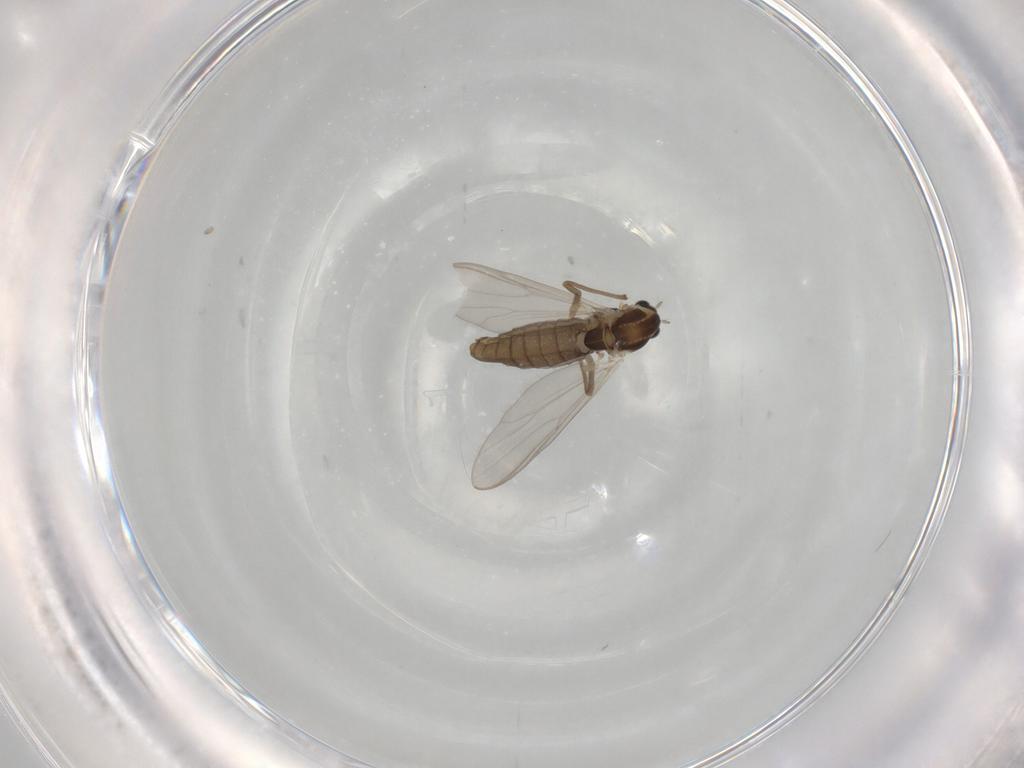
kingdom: Animalia
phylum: Arthropoda
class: Insecta
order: Diptera
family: Chironomidae
